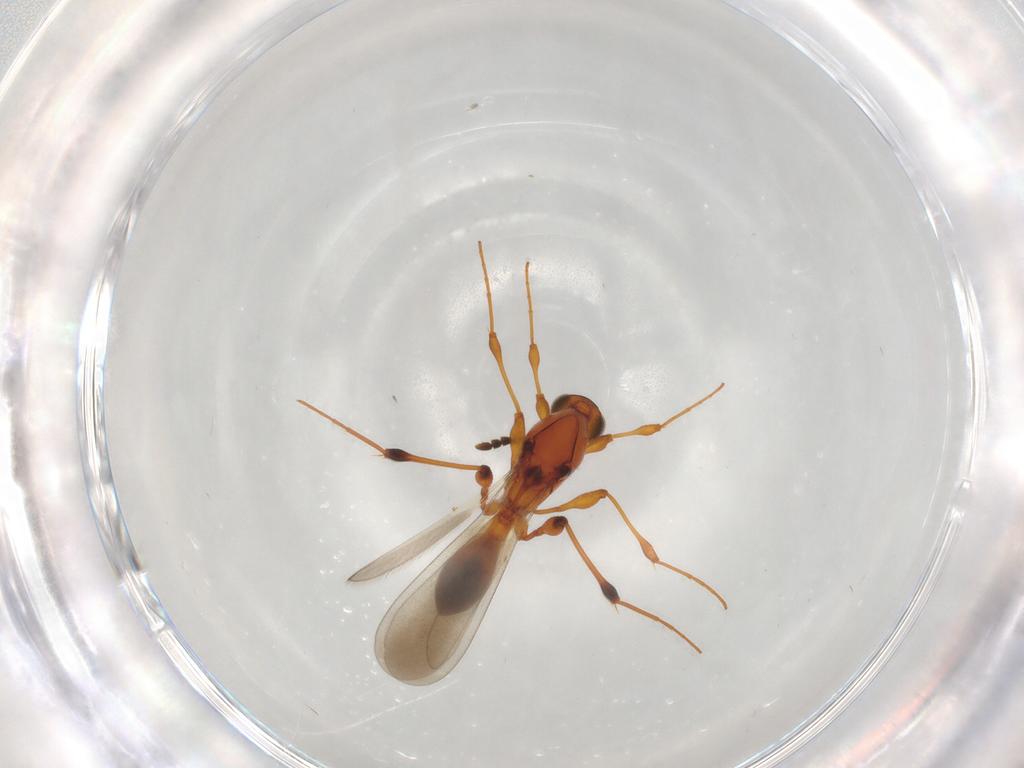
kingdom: Animalia
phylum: Arthropoda
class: Insecta
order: Hymenoptera
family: Platygastridae
